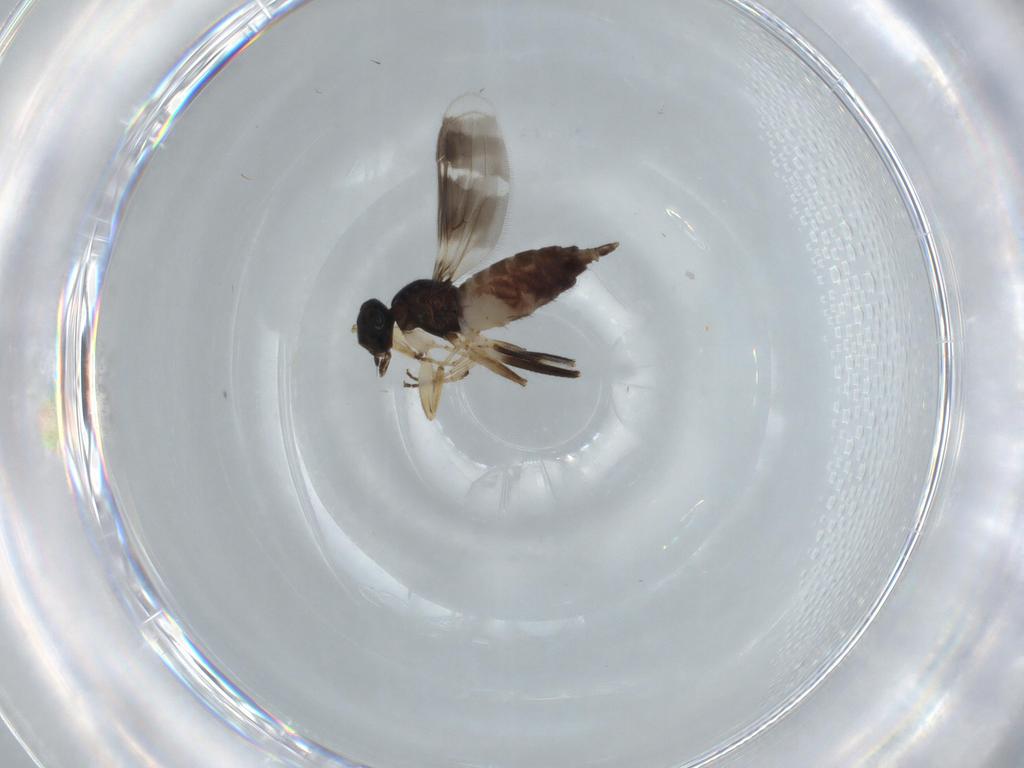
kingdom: Animalia
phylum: Arthropoda
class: Insecta
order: Diptera
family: Hybotidae
